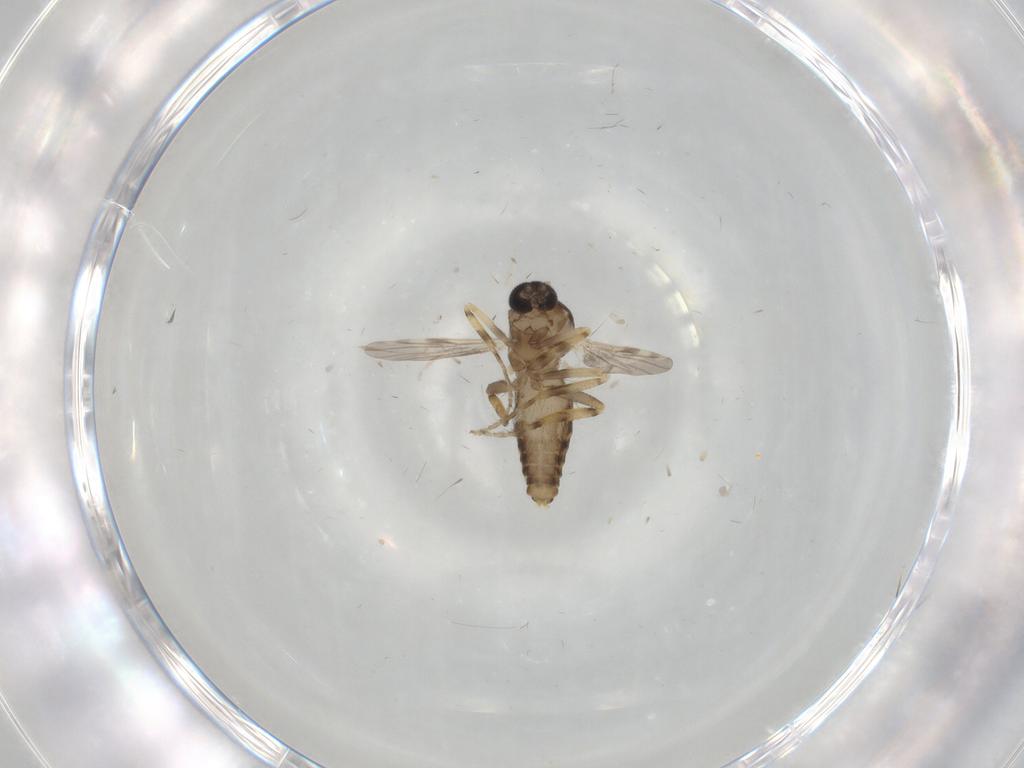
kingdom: Animalia
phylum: Arthropoda
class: Insecta
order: Diptera
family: Ceratopogonidae
